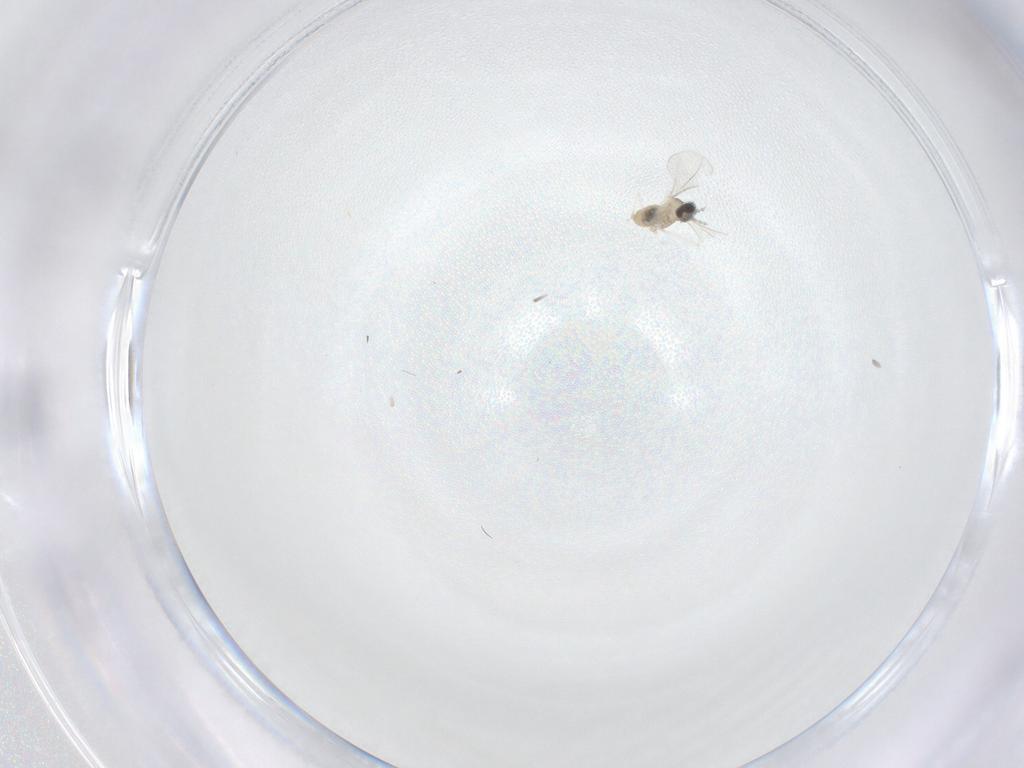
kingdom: Animalia
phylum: Arthropoda
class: Insecta
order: Diptera
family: Cecidomyiidae
